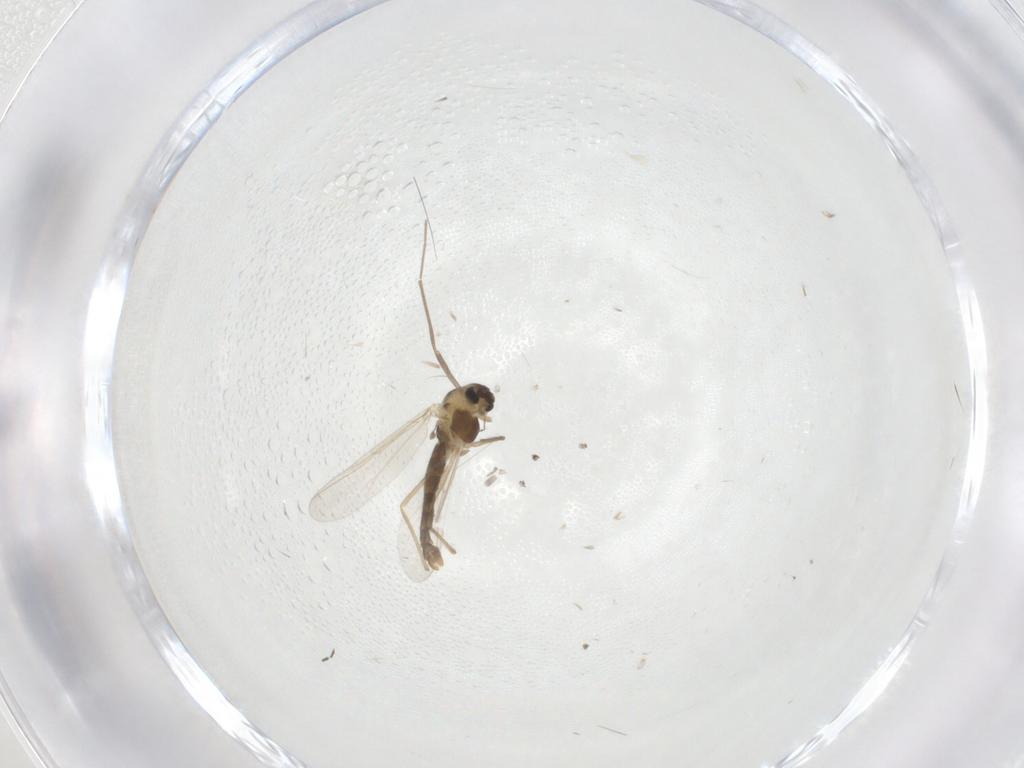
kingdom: Animalia
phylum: Arthropoda
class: Insecta
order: Diptera
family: Chironomidae
